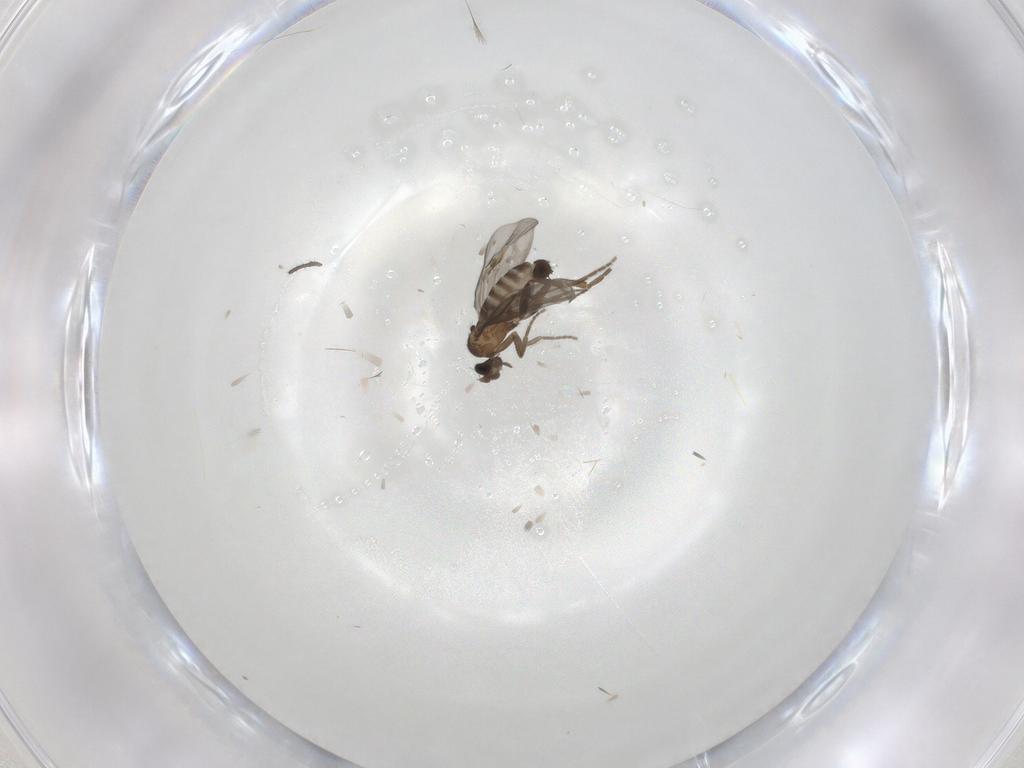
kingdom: Animalia
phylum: Arthropoda
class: Insecta
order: Diptera
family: Phoridae
